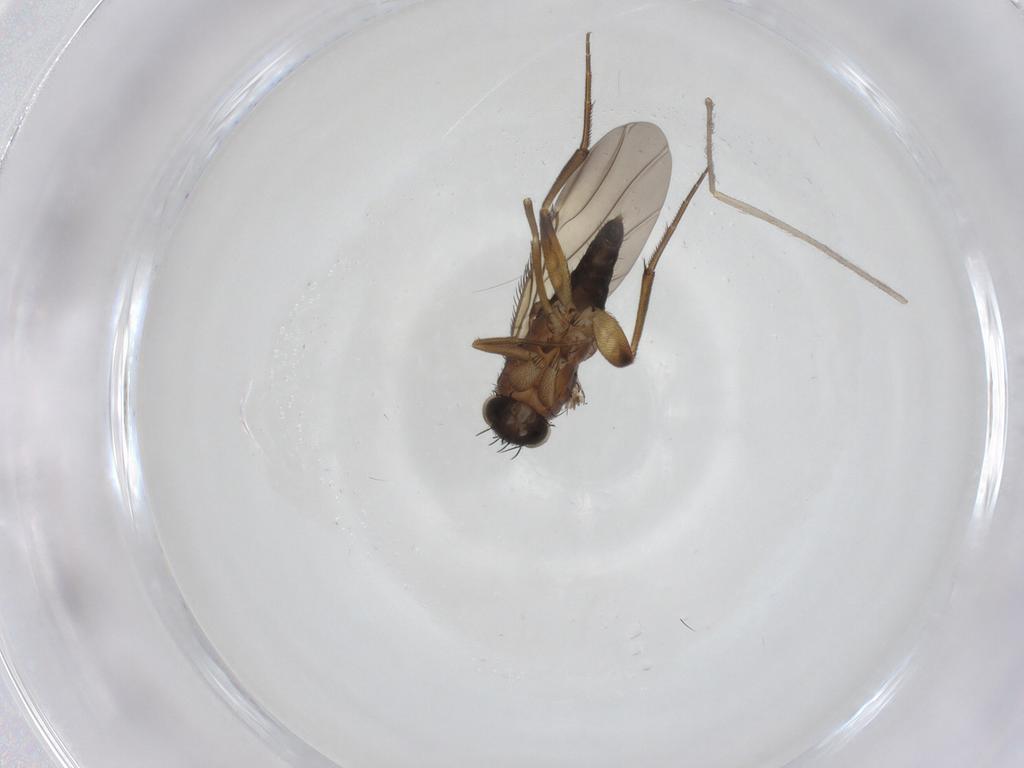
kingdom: Animalia
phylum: Arthropoda
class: Insecta
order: Diptera
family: Phoridae
